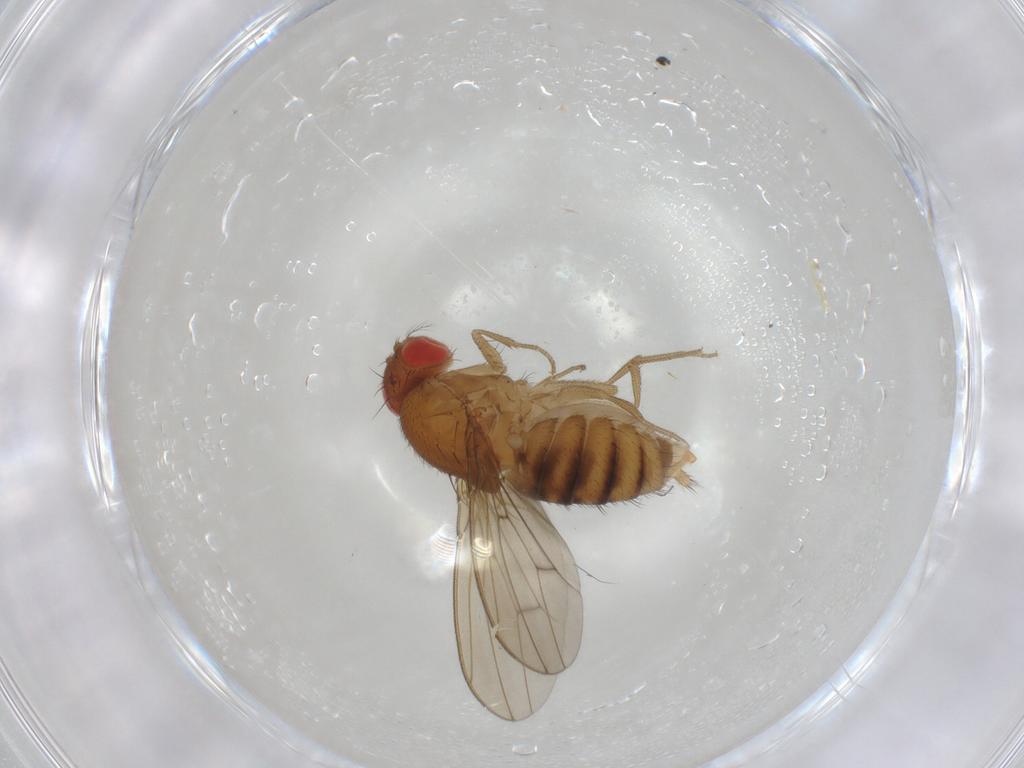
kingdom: Animalia
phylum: Arthropoda
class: Insecta
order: Diptera
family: Drosophilidae
